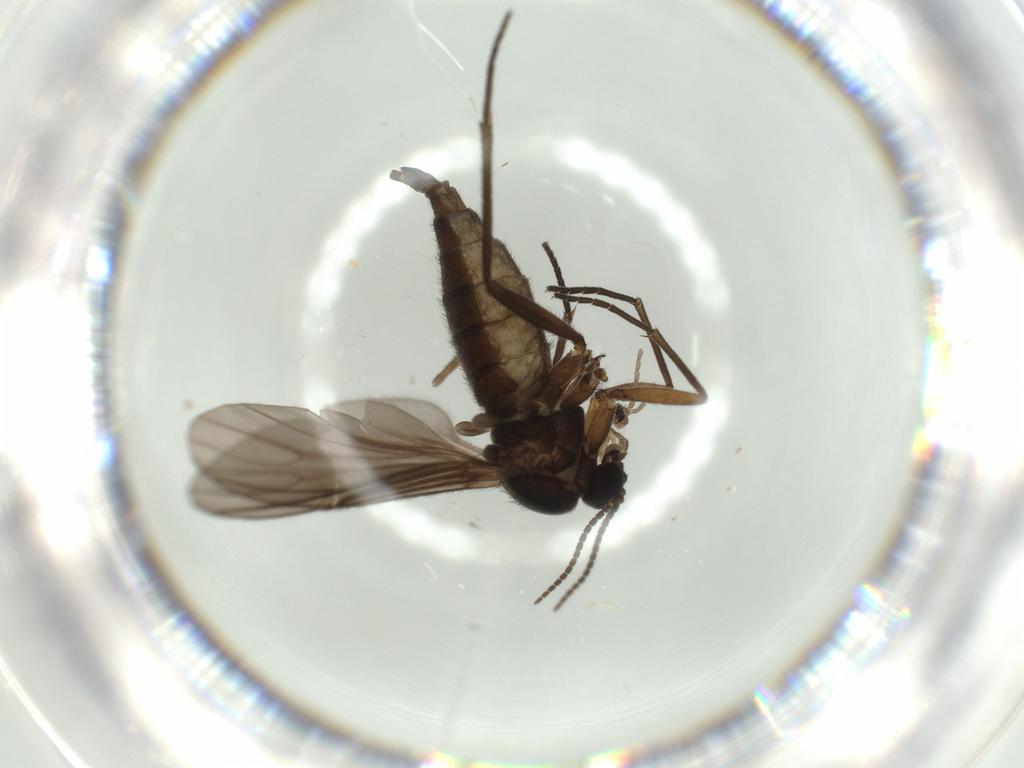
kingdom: Animalia
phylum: Arthropoda
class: Insecta
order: Diptera
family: Sciaridae
